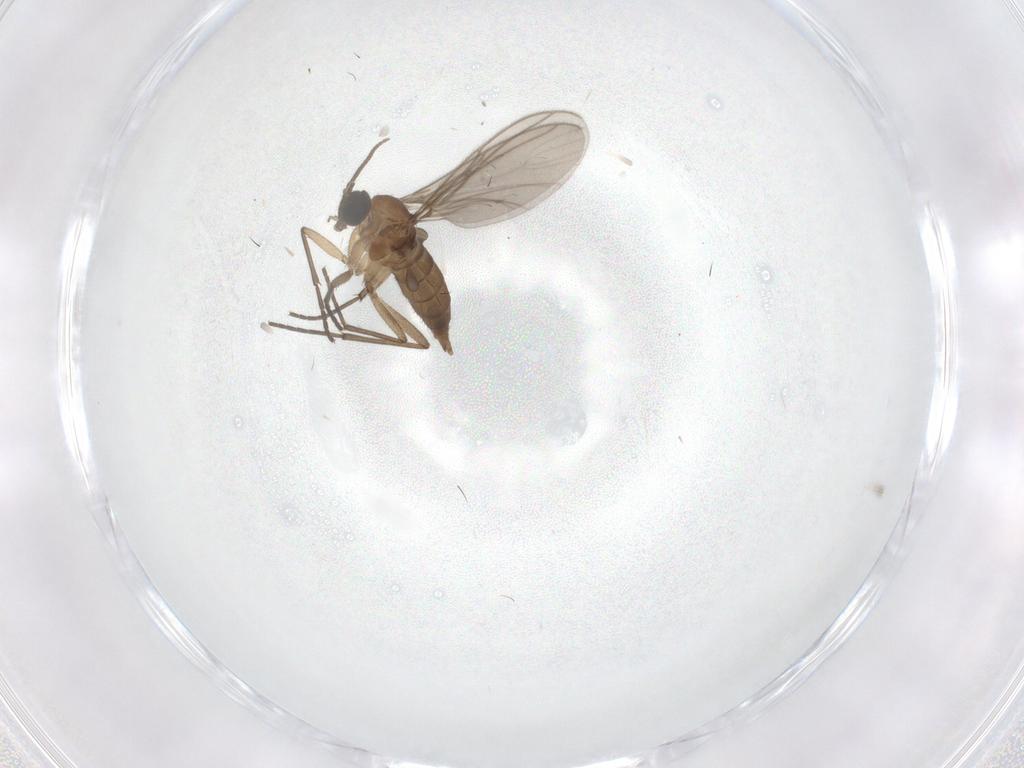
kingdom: Animalia
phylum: Arthropoda
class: Insecta
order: Diptera
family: Sciaridae
